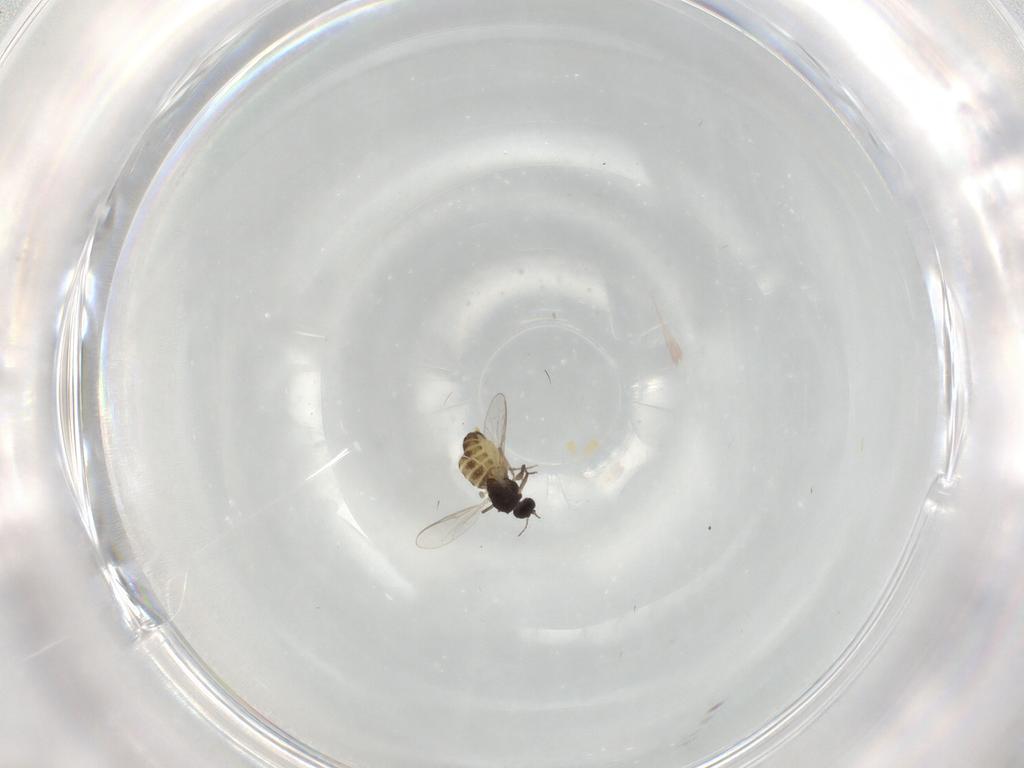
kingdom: Animalia
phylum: Arthropoda
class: Insecta
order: Diptera
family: Chironomidae
